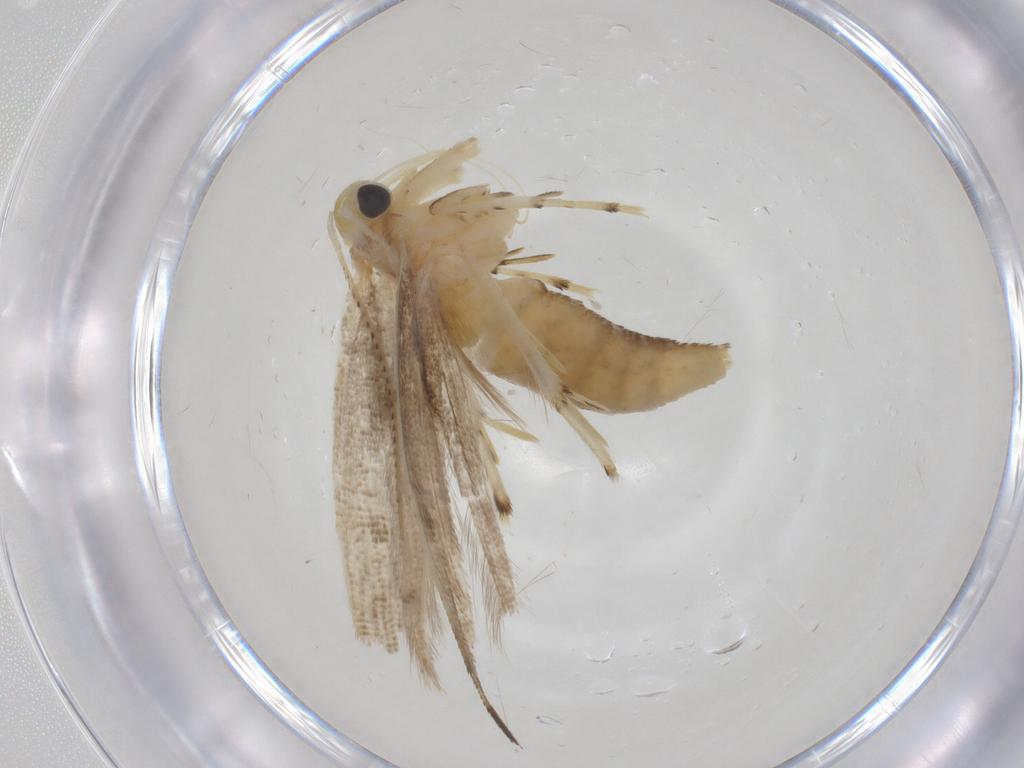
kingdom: Animalia
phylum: Arthropoda
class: Insecta
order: Lepidoptera
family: Argyresthiidae
